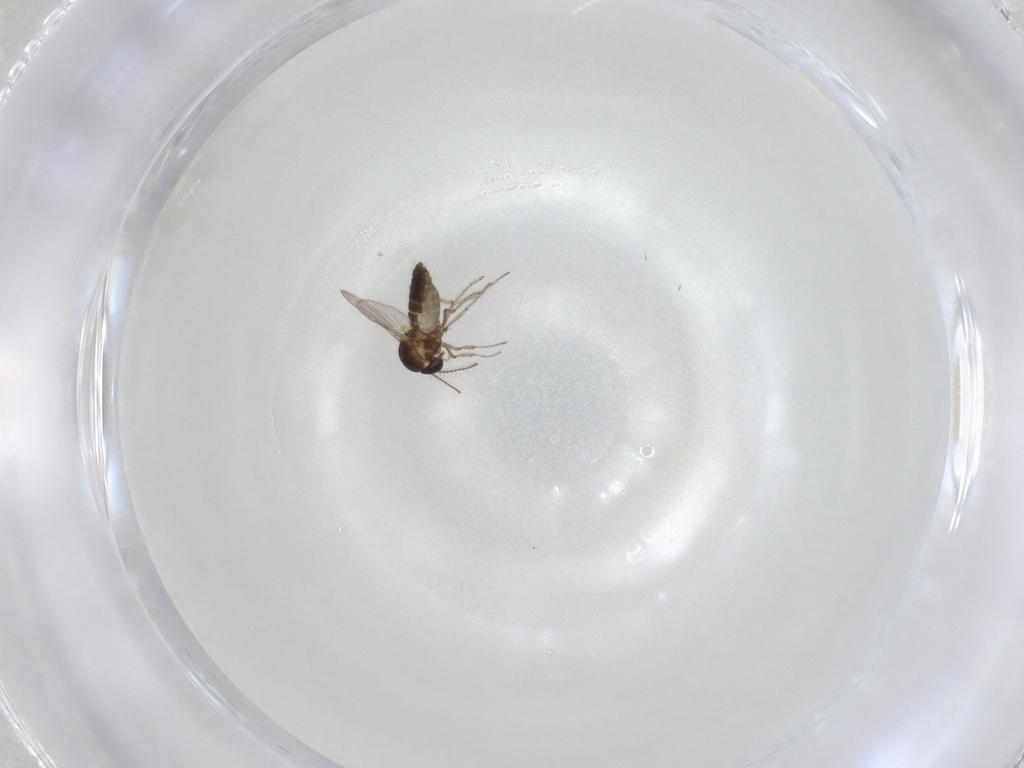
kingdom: Animalia
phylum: Arthropoda
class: Insecta
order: Diptera
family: Ceratopogonidae
